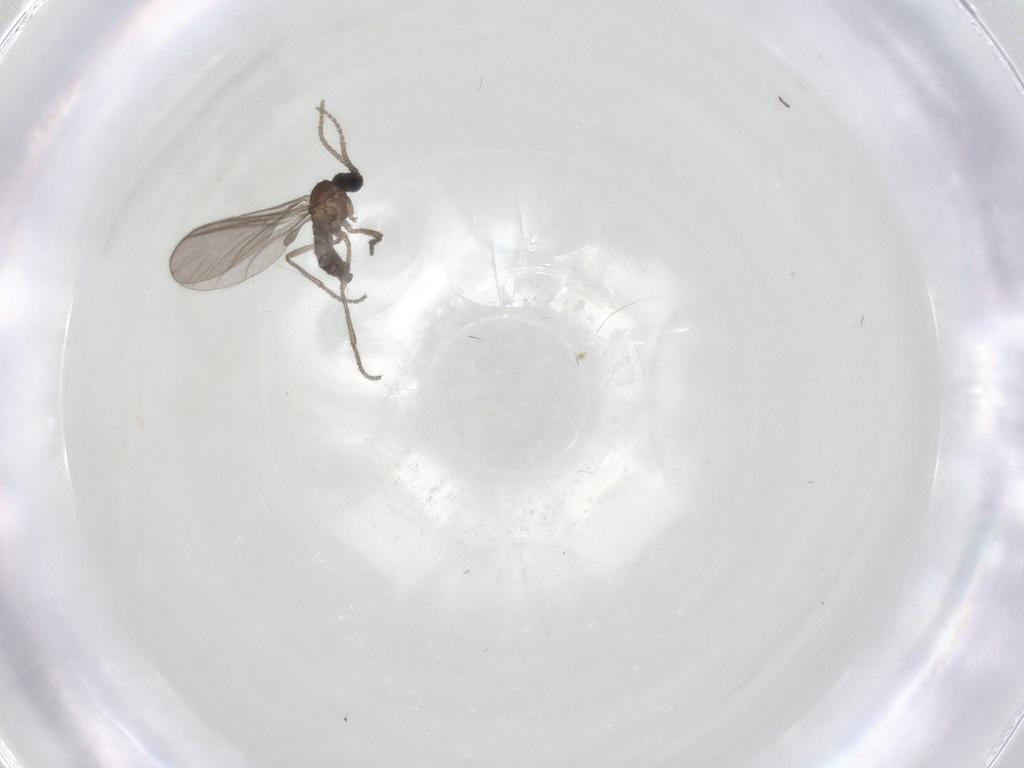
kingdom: Animalia
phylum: Arthropoda
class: Insecta
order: Diptera
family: Sciaridae
